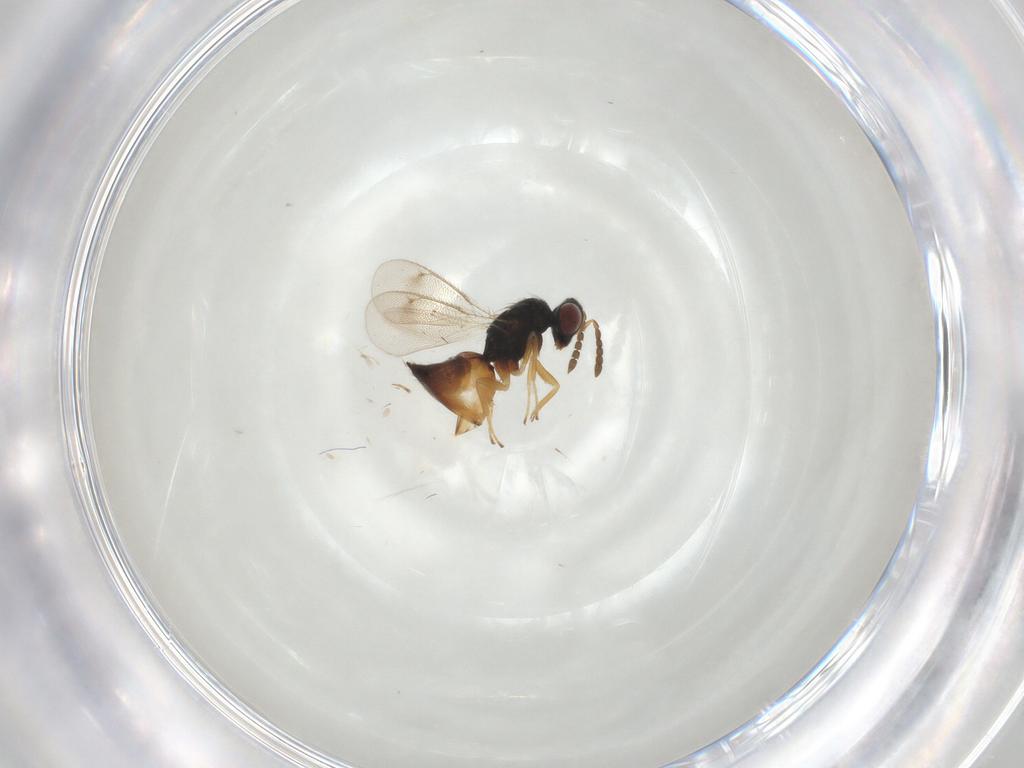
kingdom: Animalia
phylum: Arthropoda
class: Insecta
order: Hymenoptera
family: Eulophidae
